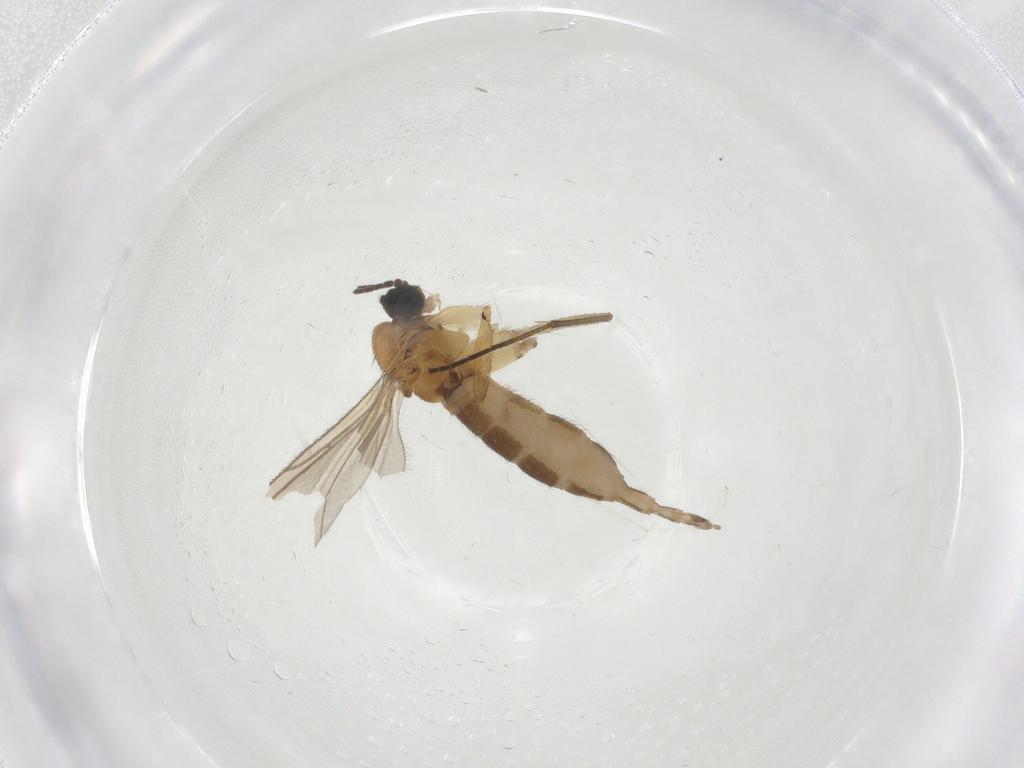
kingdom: Animalia
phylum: Arthropoda
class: Insecta
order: Diptera
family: Cecidomyiidae
